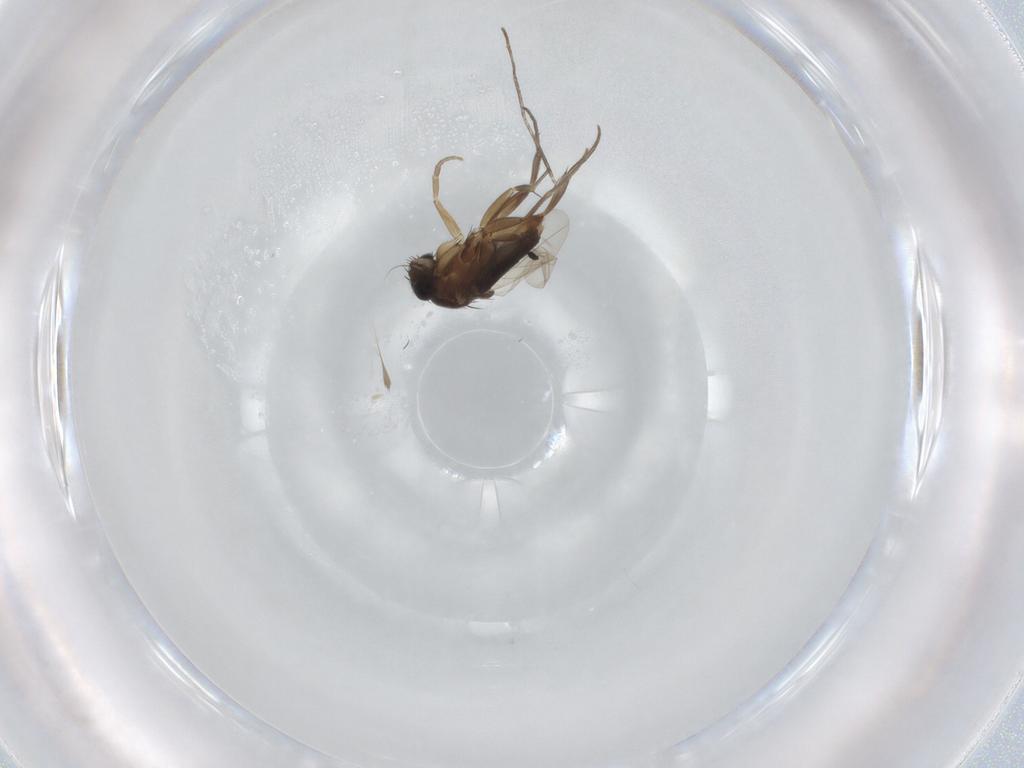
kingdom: Animalia
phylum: Arthropoda
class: Insecta
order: Diptera
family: Phoridae
